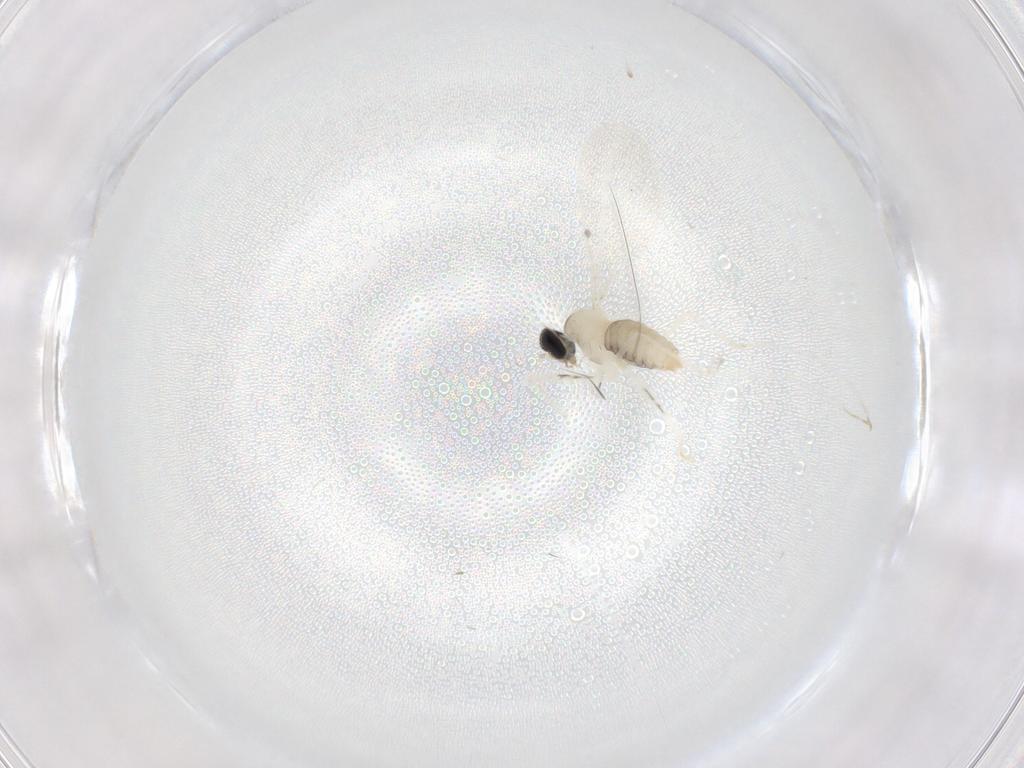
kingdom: Animalia
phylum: Arthropoda
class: Insecta
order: Diptera
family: Cecidomyiidae
